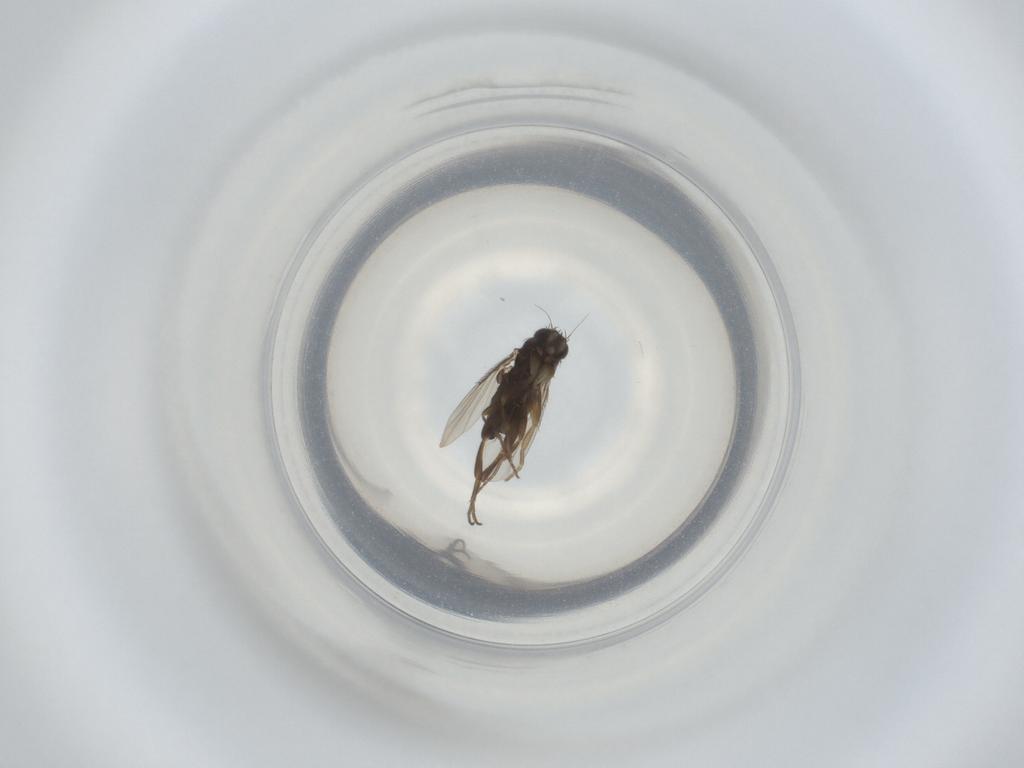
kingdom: Animalia
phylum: Arthropoda
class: Insecta
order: Diptera
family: Phoridae
